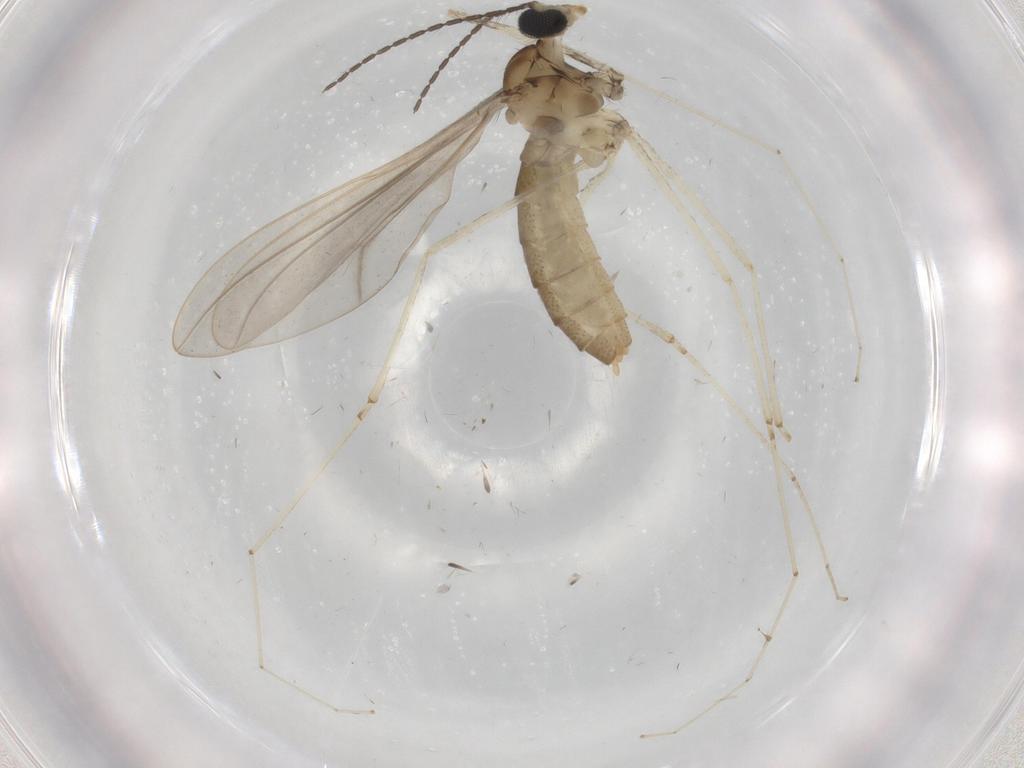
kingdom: Animalia
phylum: Arthropoda
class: Insecta
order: Diptera
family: Cecidomyiidae
